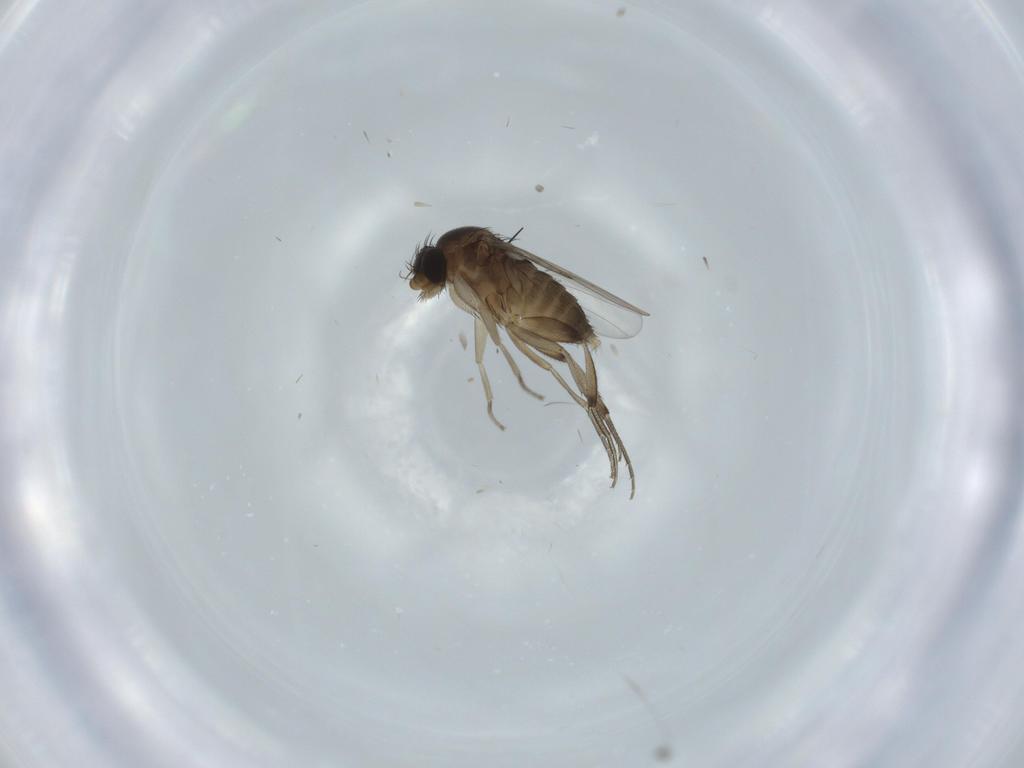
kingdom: Animalia
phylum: Arthropoda
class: Insecta
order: Diptera
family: Phoridae
